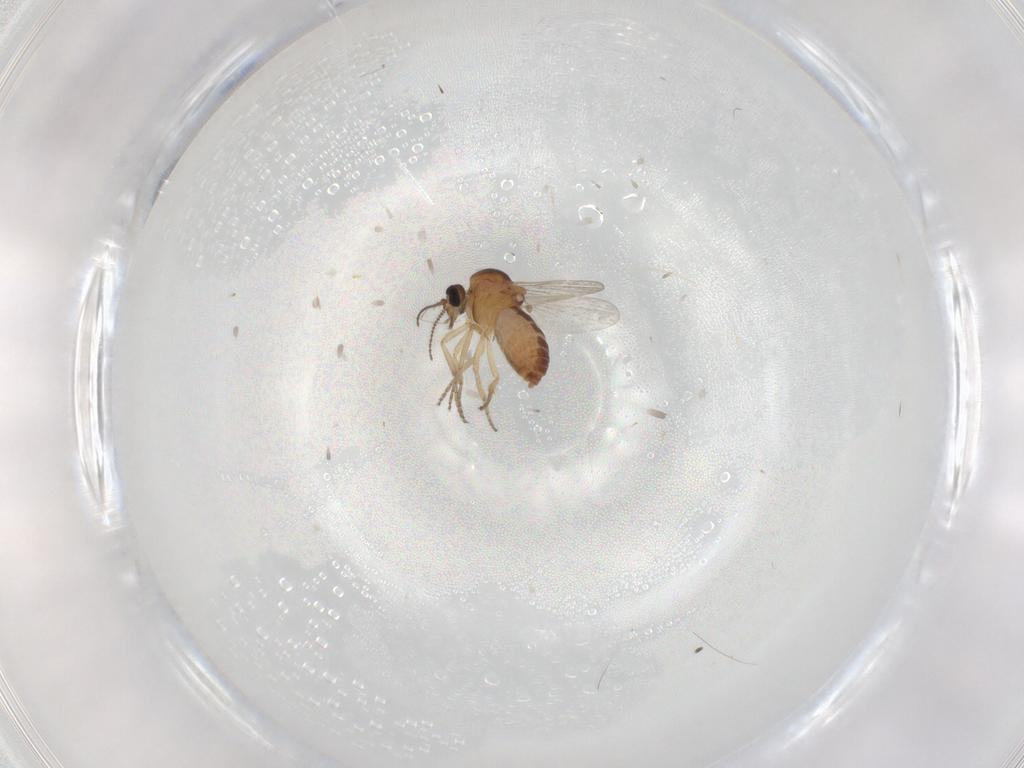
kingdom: Animalia
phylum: Arthropoda
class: Insecta
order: Diptera
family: Ceratopogonidae
